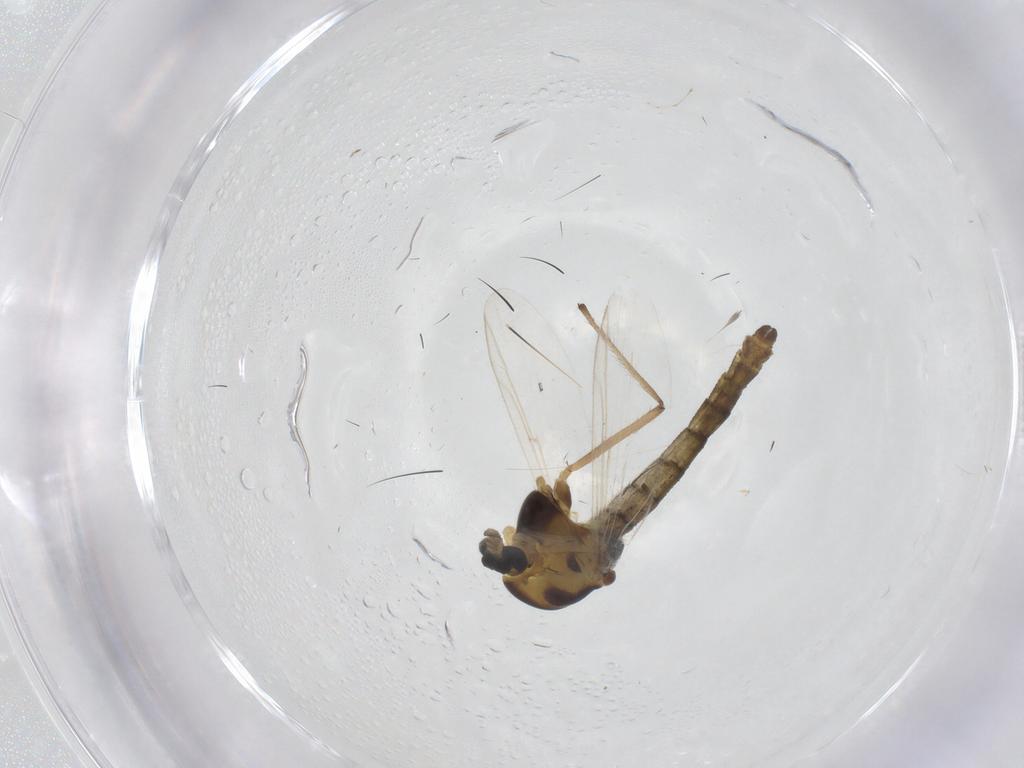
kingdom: Animalia
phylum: Arthropoda
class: Insecta
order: Diptera
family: Chironomidae
